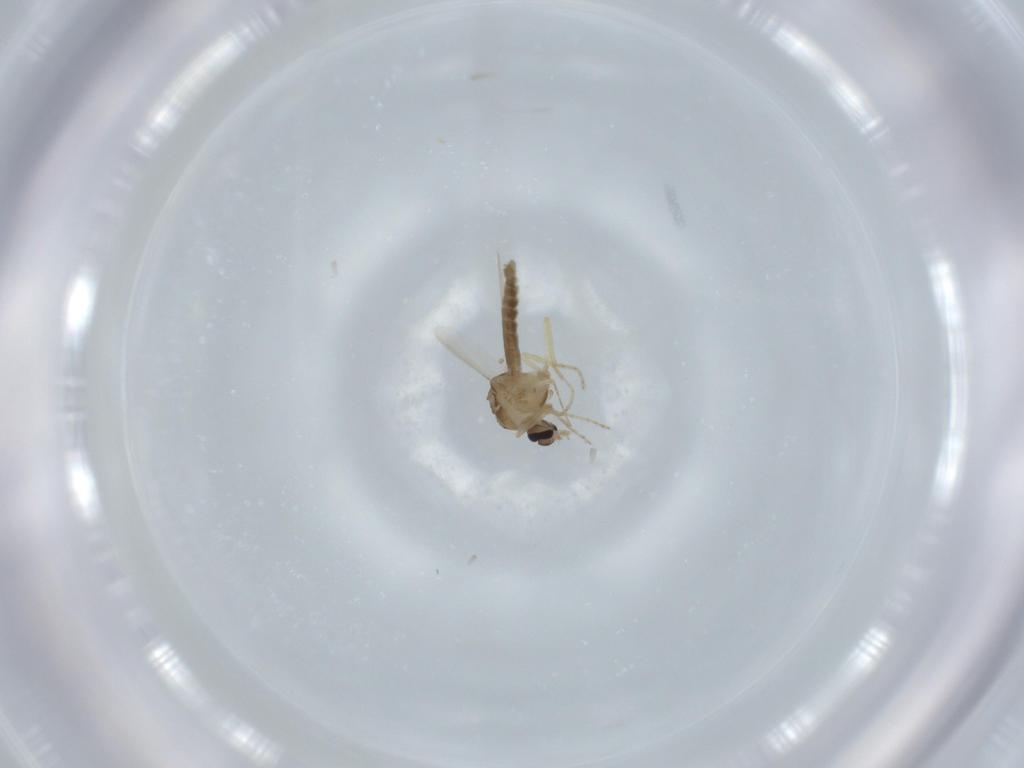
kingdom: Animalia
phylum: Arthropoda
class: Insecta
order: Diptera
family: Ceratopogonidae
